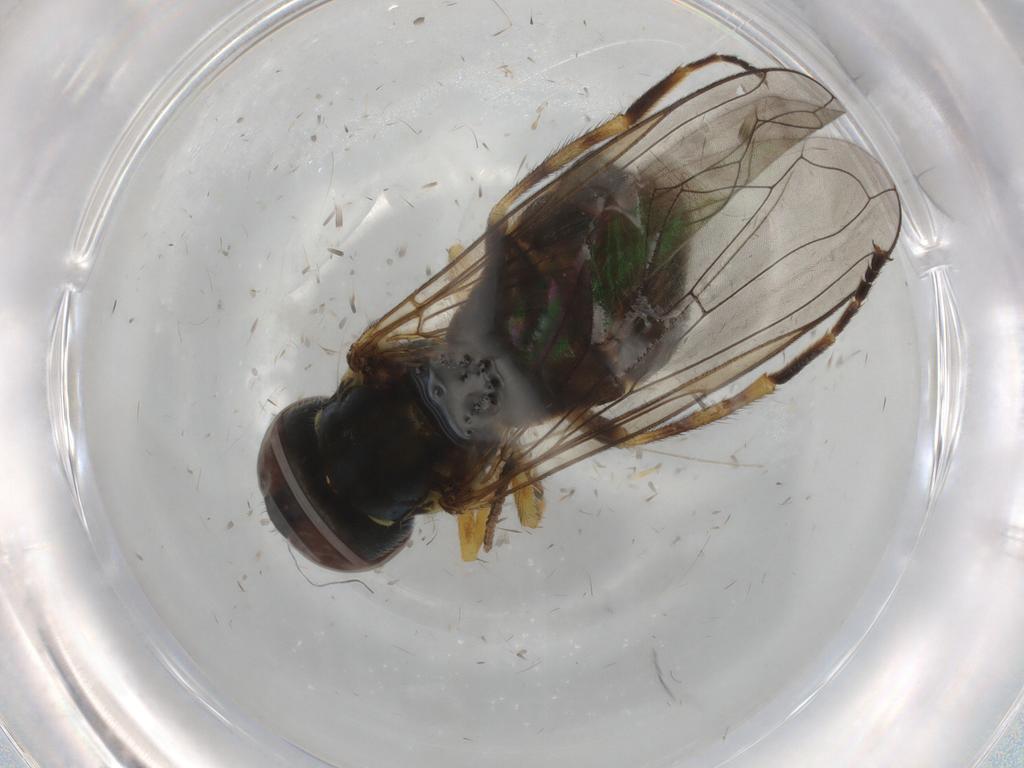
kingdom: Animalia
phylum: Arthropoda
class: Insecta
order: Diptera
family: Syrphidae
